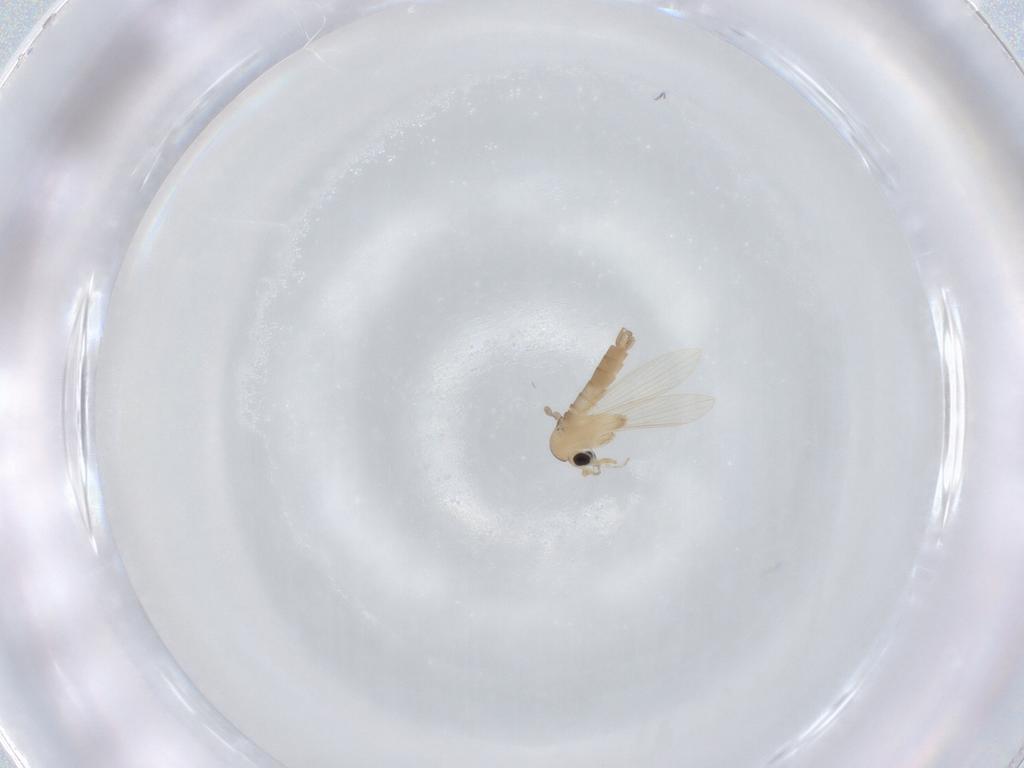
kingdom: Animalia
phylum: Arthropoda
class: Insecta
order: Diptera
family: Psychodidae
